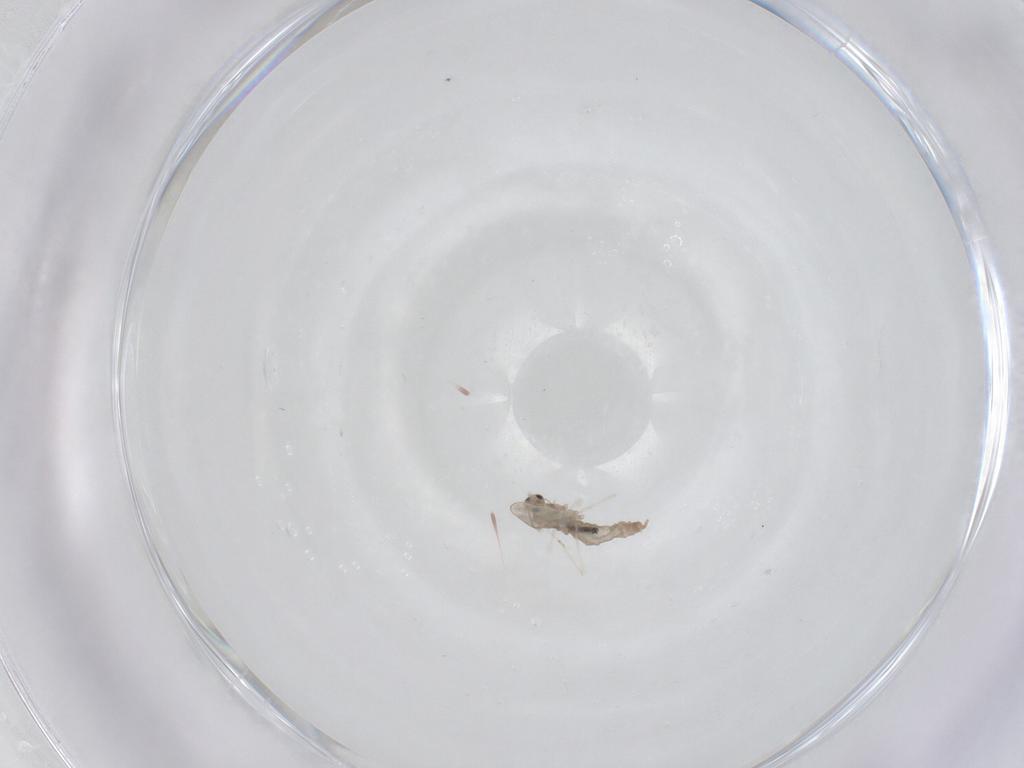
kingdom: Animalia
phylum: Arthropoda
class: Insecta
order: Diptera
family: Cecidomyiidae
